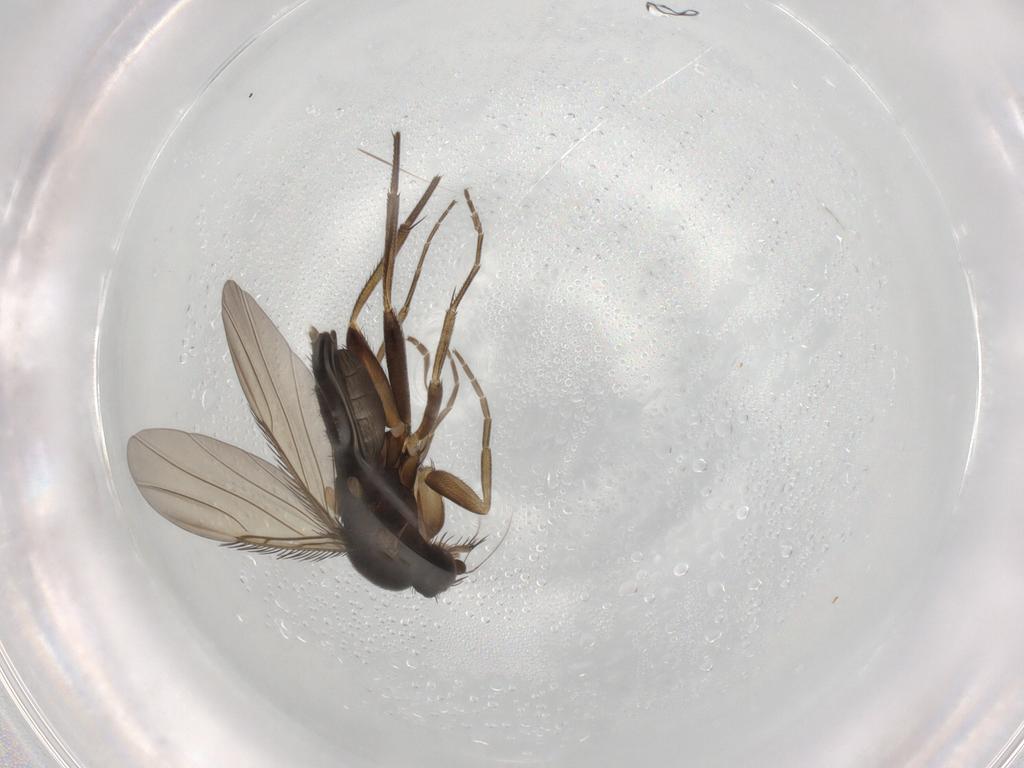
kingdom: Animalia
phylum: Arthropoda
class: Insecta
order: Diptera
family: Phoridae
